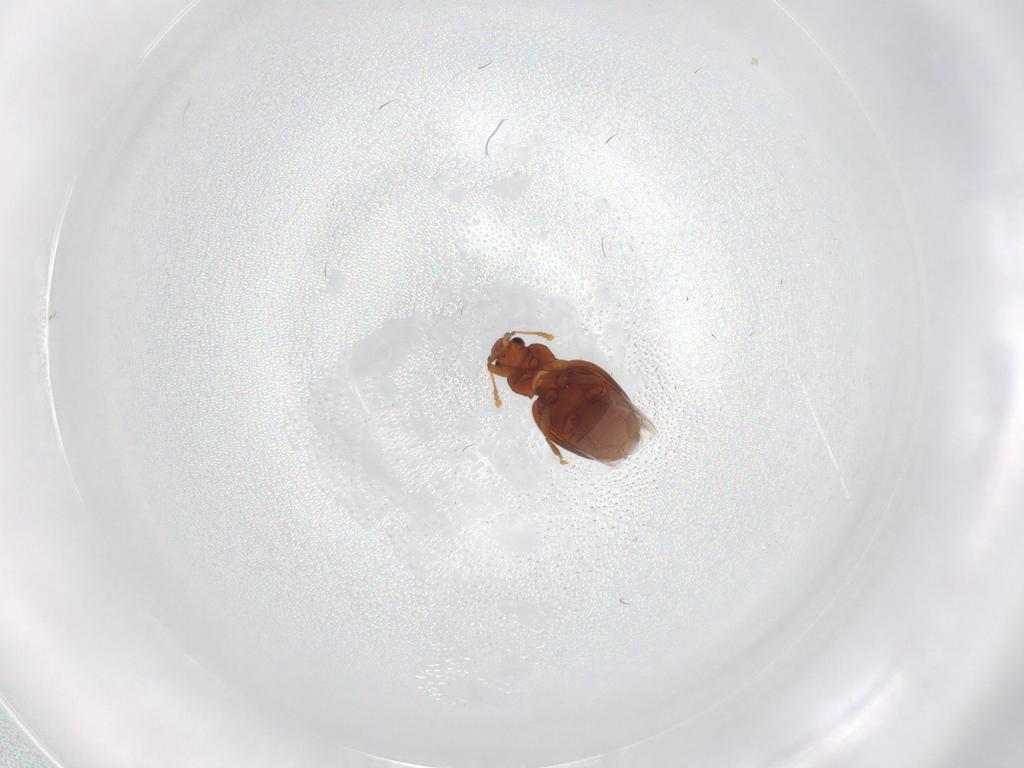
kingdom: Animalia
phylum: Arthropoda
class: Insecta
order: Coleoptera
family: Latridiidae
